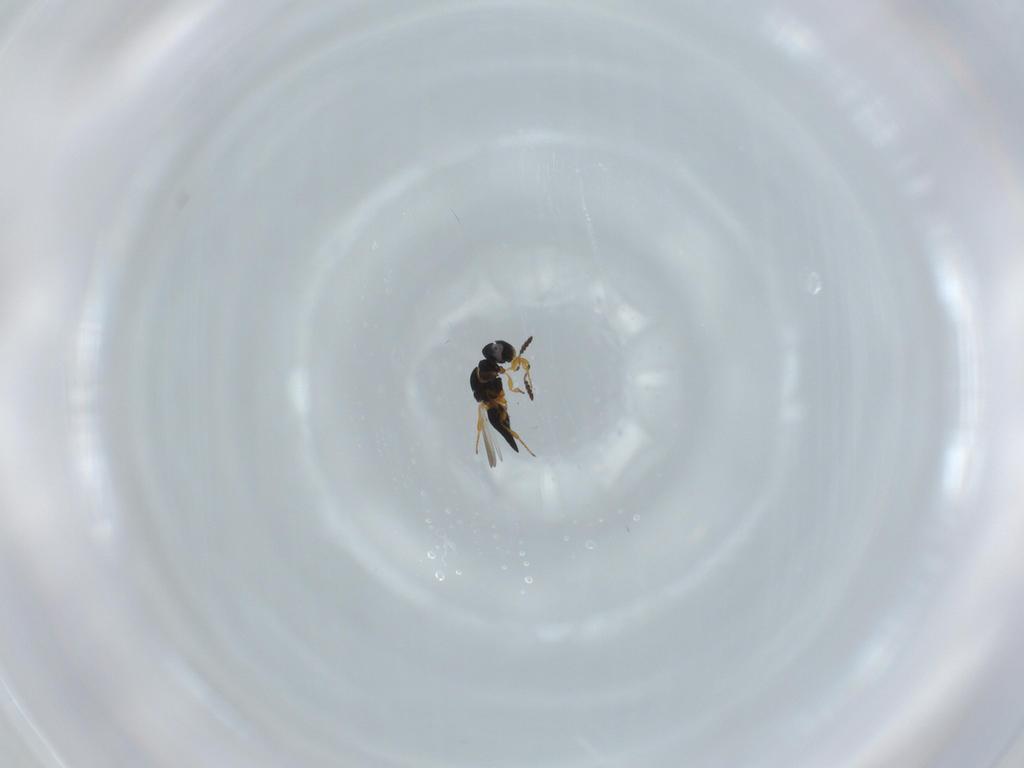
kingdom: Animalia
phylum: Arthropoda
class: Insecta
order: Hymenoptera
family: Platygastridae
